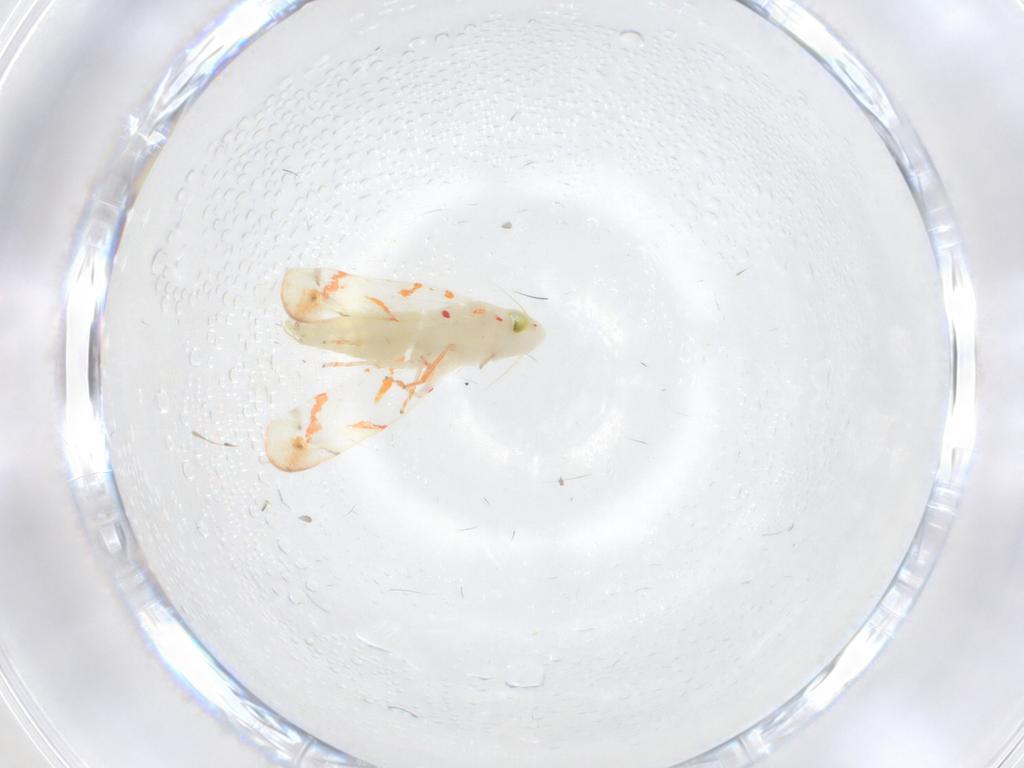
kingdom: Animalia
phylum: Arthropoda
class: Insecta
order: Hemiptera
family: Cicadellidae
